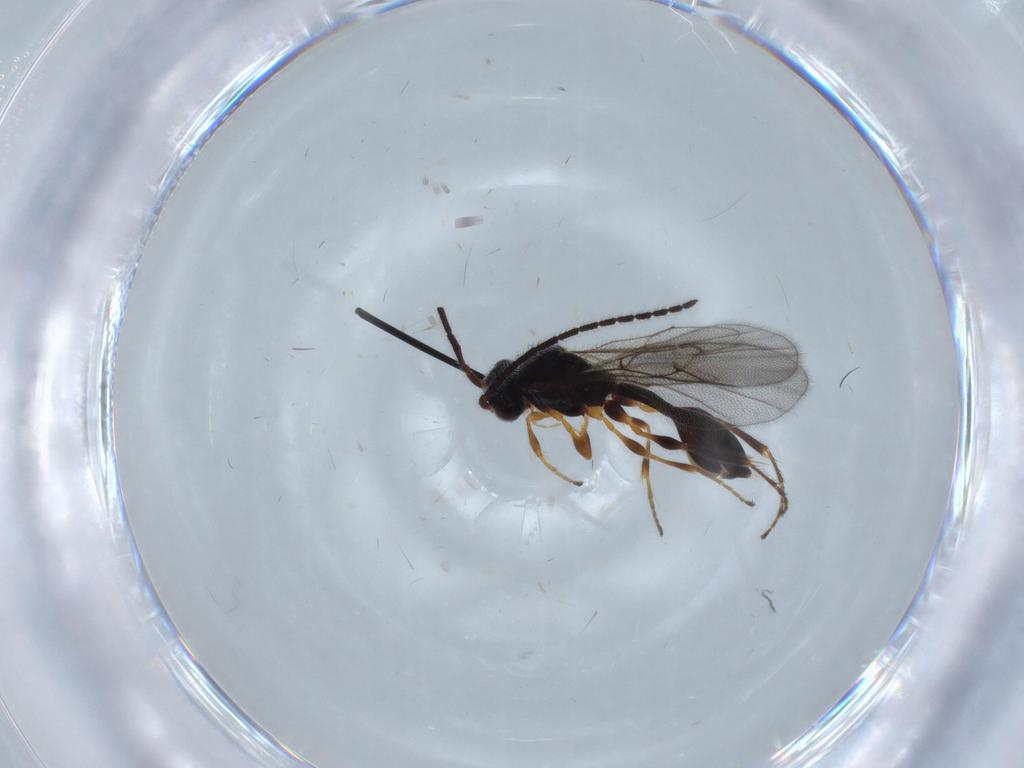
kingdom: Animalia
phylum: Arthropoda
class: Insecta
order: Hymenoptera
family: Diapriidae
